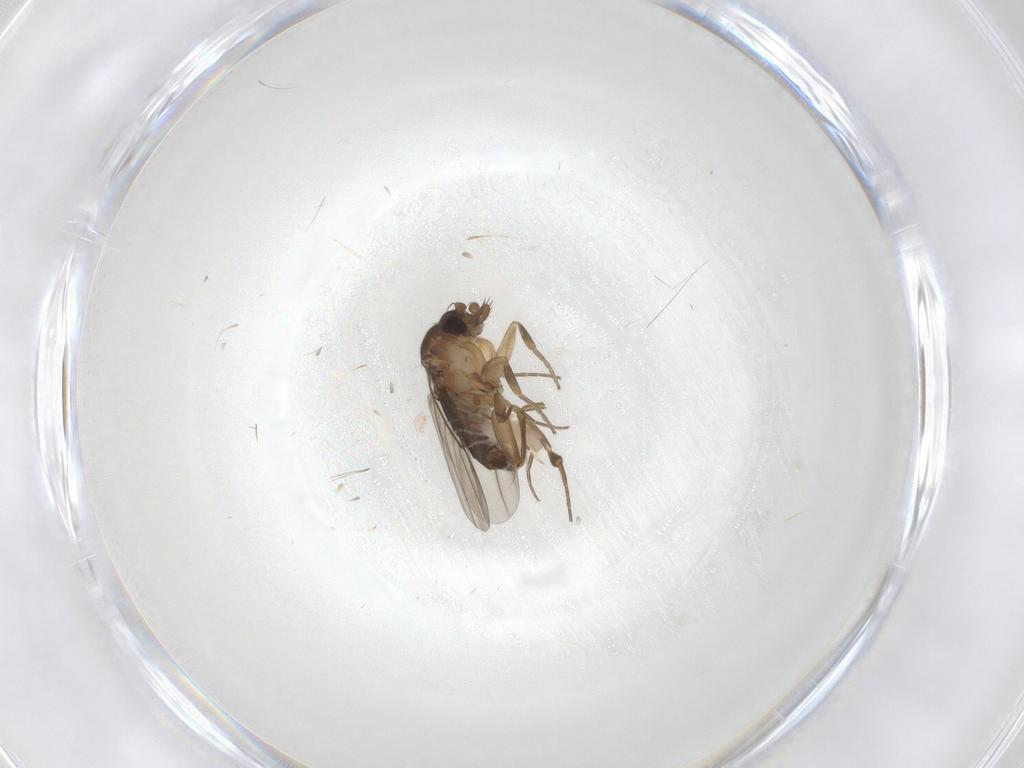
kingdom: Animalia
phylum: Arthropoda
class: Insecta
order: Diptera
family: Phoridae
